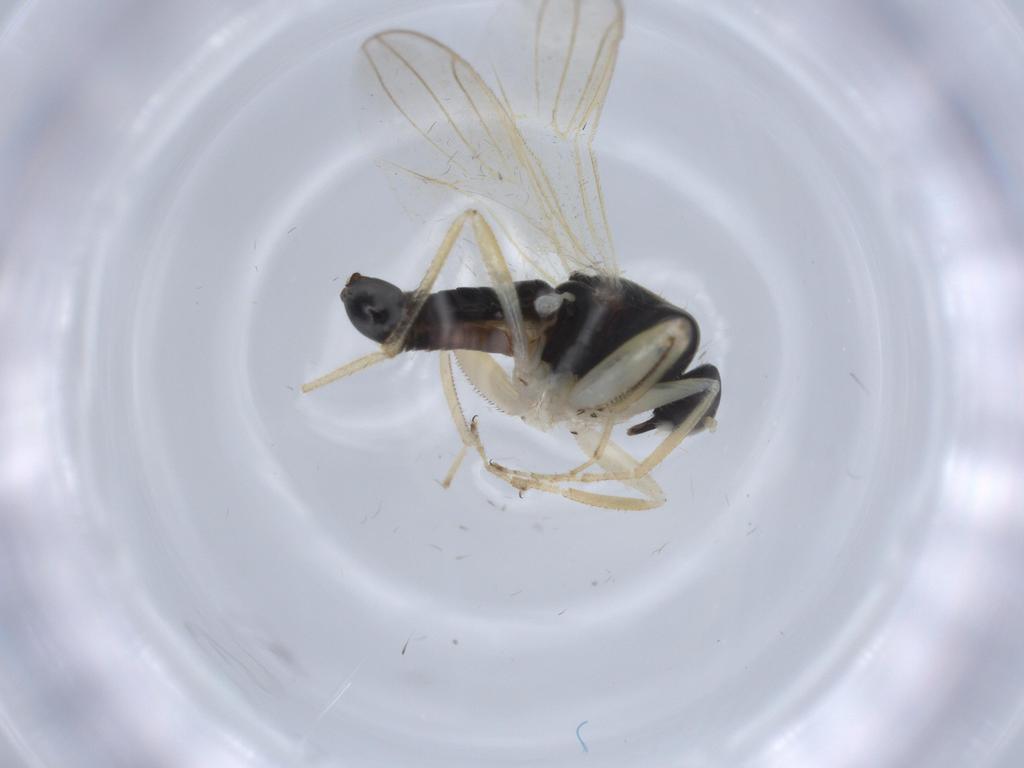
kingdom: Animalia
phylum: Arthropoda
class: Insecta
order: Diptera
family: Hybotidae
